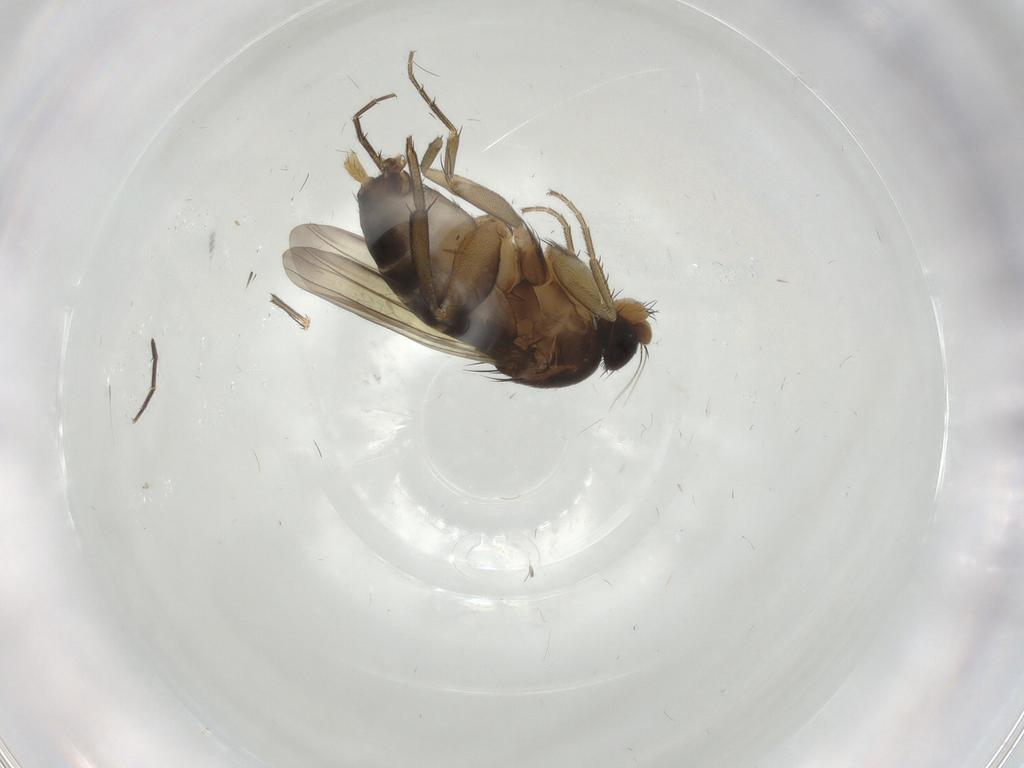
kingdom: Animalia
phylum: Arthropoda
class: Insecta
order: Diptera
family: Phoridae
